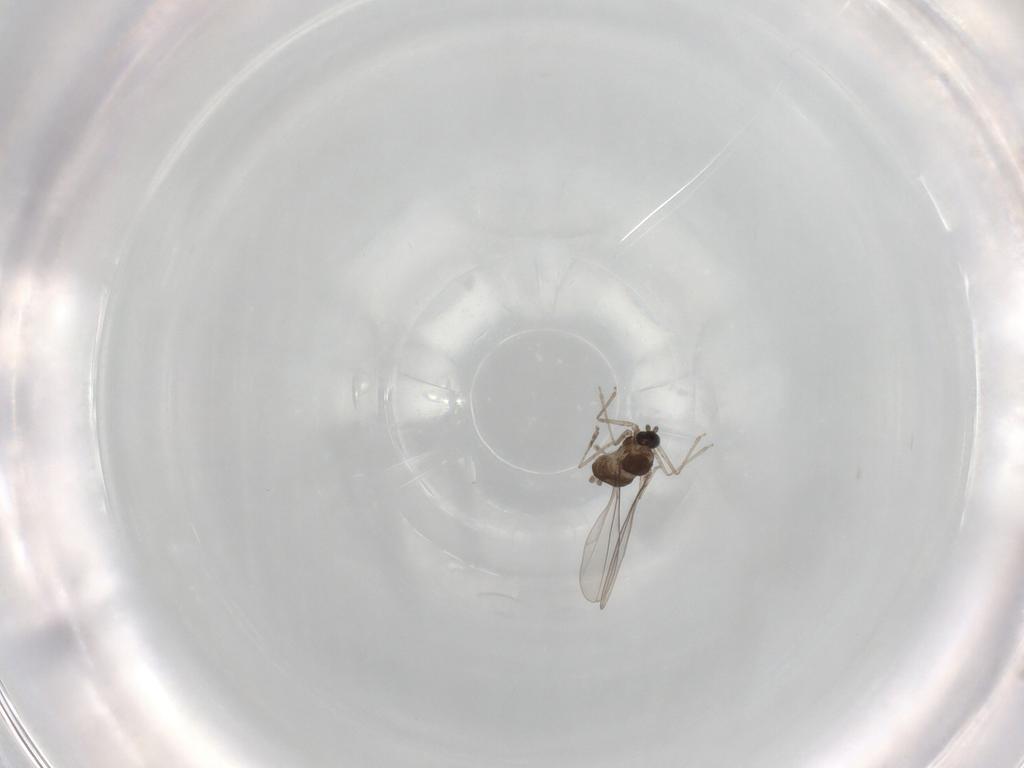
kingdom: Animalia
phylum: Arthropoda
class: Insecta
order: Diptera
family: Cecidomyiidae
